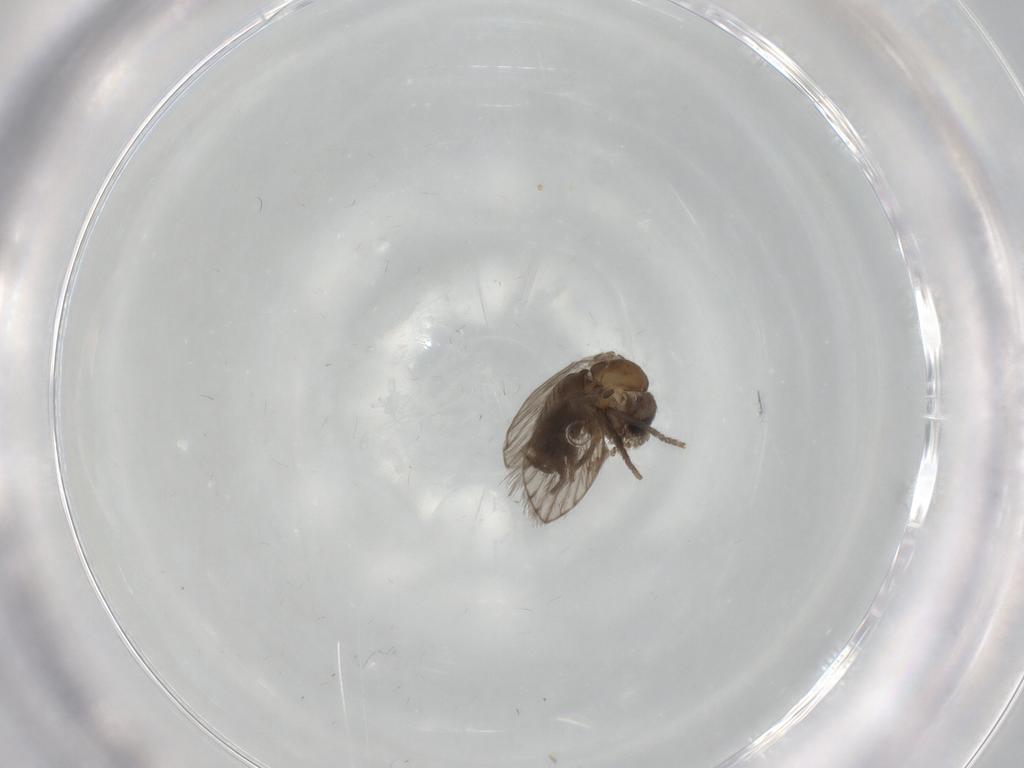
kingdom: Animalia
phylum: Arthropoda
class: Insecta
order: Diptera
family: Psychodidae
